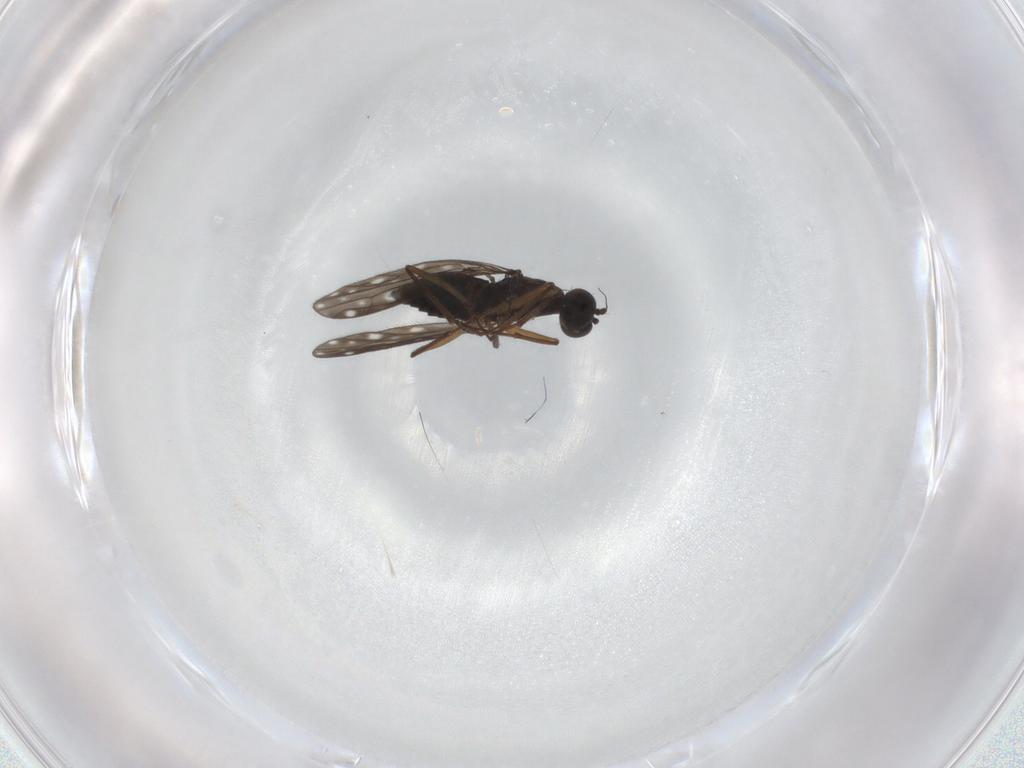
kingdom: Animalia
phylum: Arthropoda
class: Insecta
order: Diptera
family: Empididae
